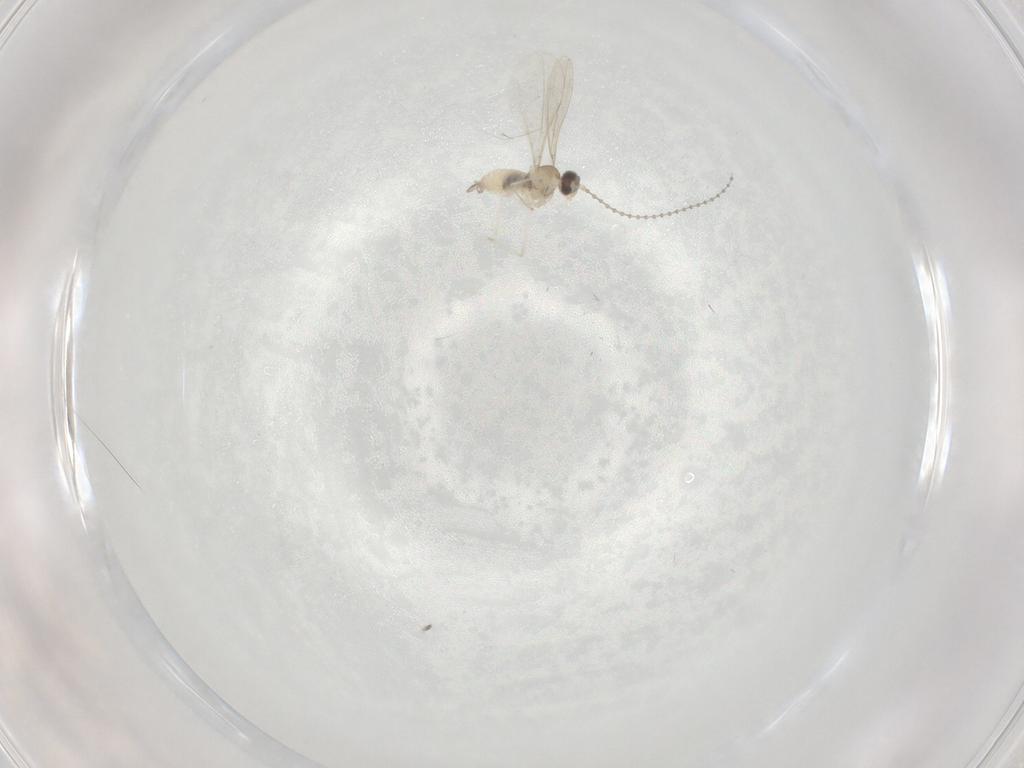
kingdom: Animalia
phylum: Arthropoda
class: Insecta
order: Diptera
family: Cecidomyiidae
